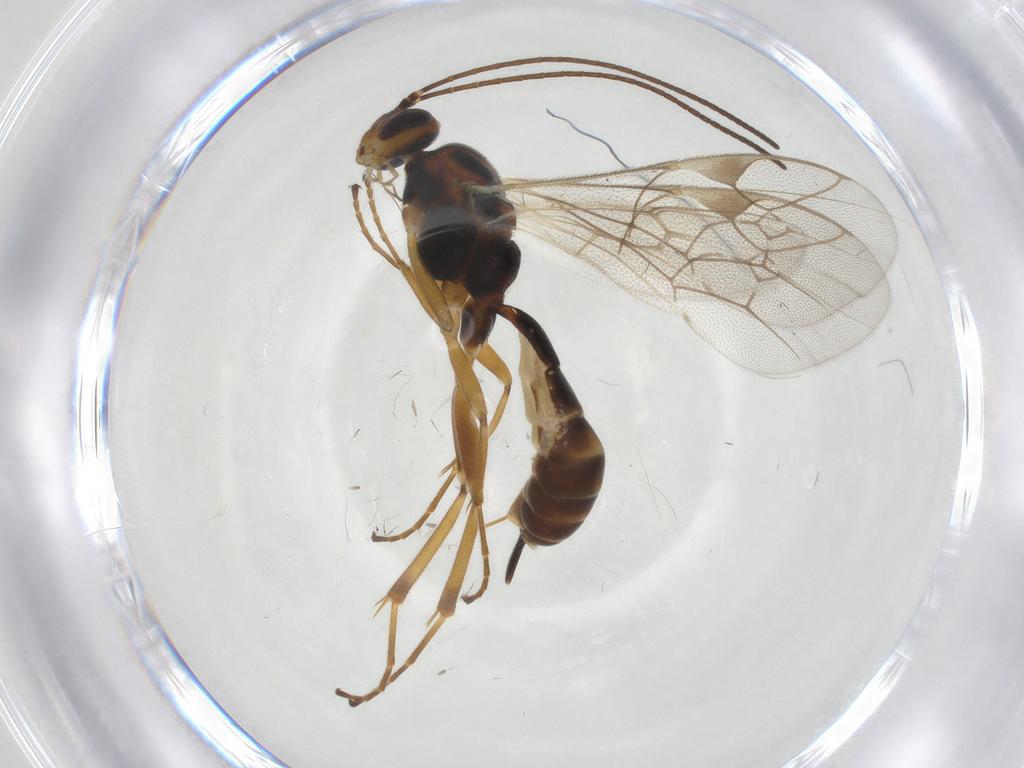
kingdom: Animalia
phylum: Arthropoda
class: Insecta
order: Hymenoptera
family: Ichneumonidae
